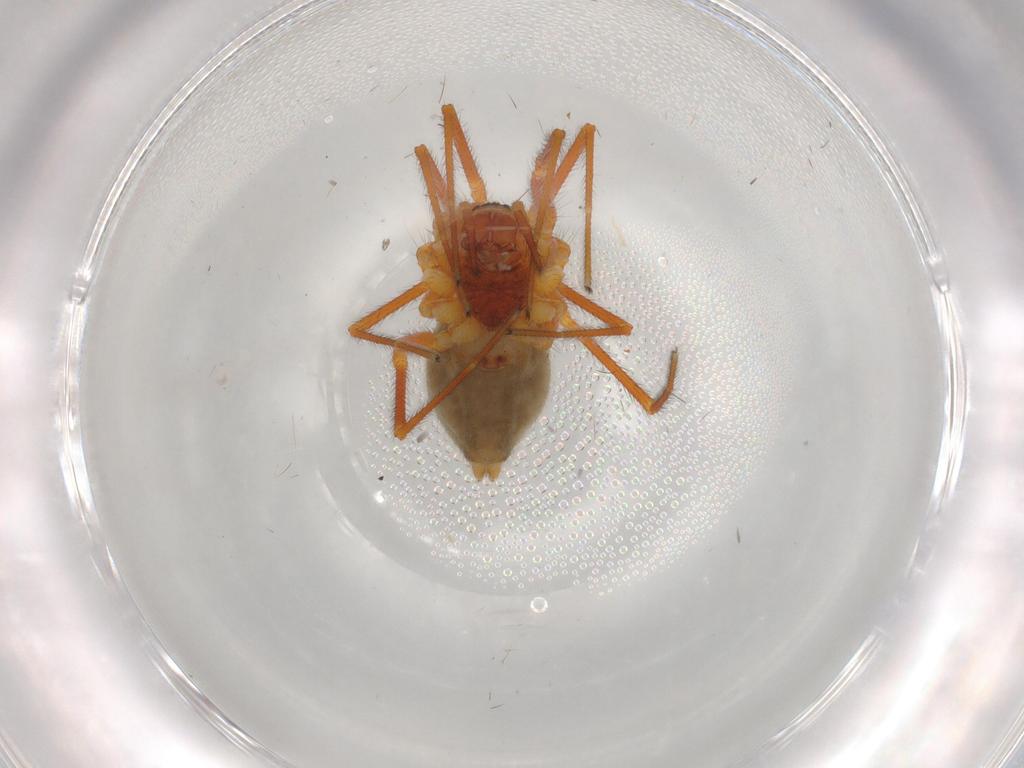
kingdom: Animalia
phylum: Arthropoda
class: Arachnida
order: Araneae
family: Linyphiidae
